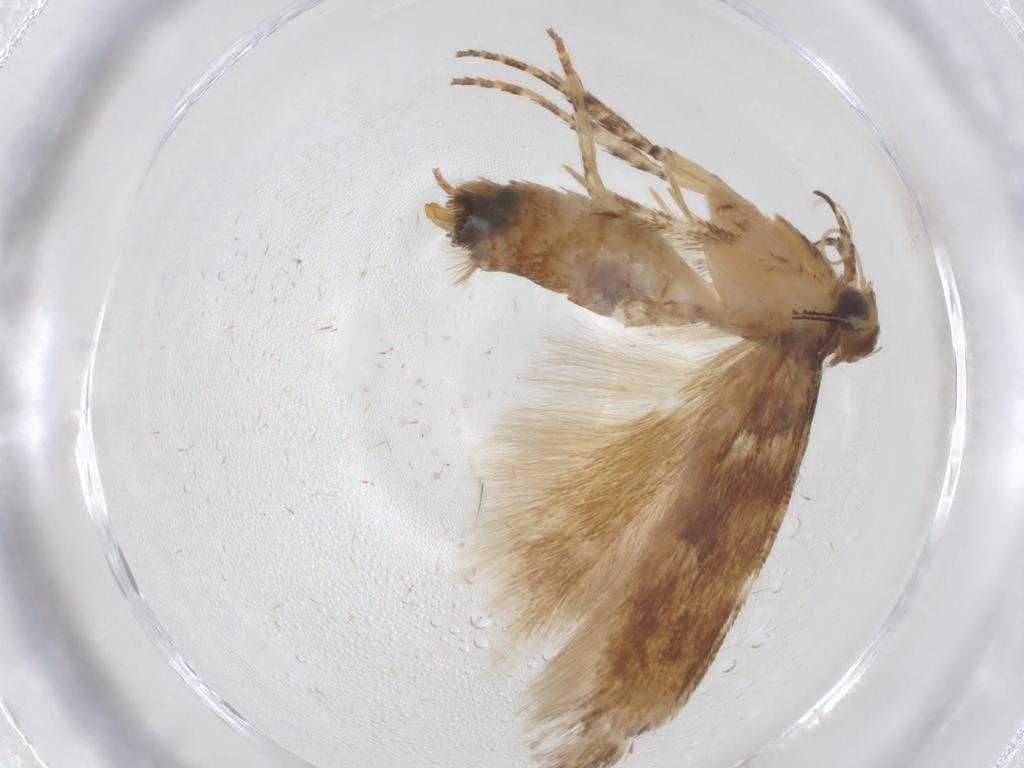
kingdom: Animalia
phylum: Arthropoda
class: Insecta
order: Lepidoptera
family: Gelechiidae
